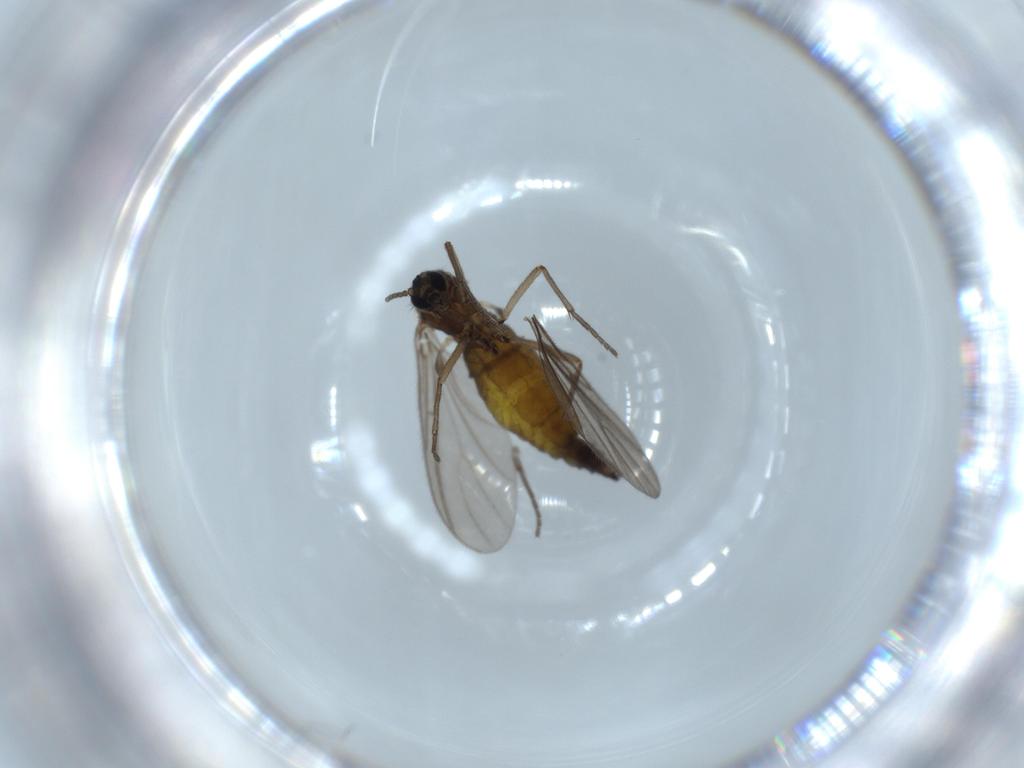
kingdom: Animalia
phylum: Arthropoda
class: Insecta
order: Diptera
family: Sciaridae
